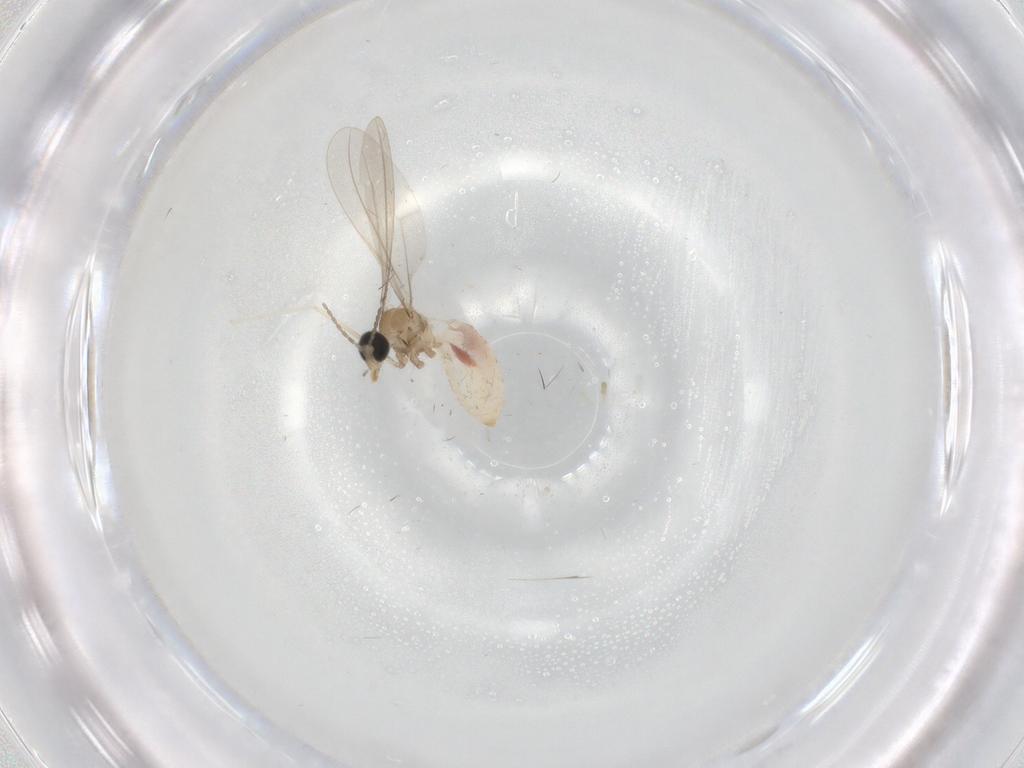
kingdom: Animalia
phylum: Arthropoda
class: Insecta
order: Diptera
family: Cecidomyiidae
